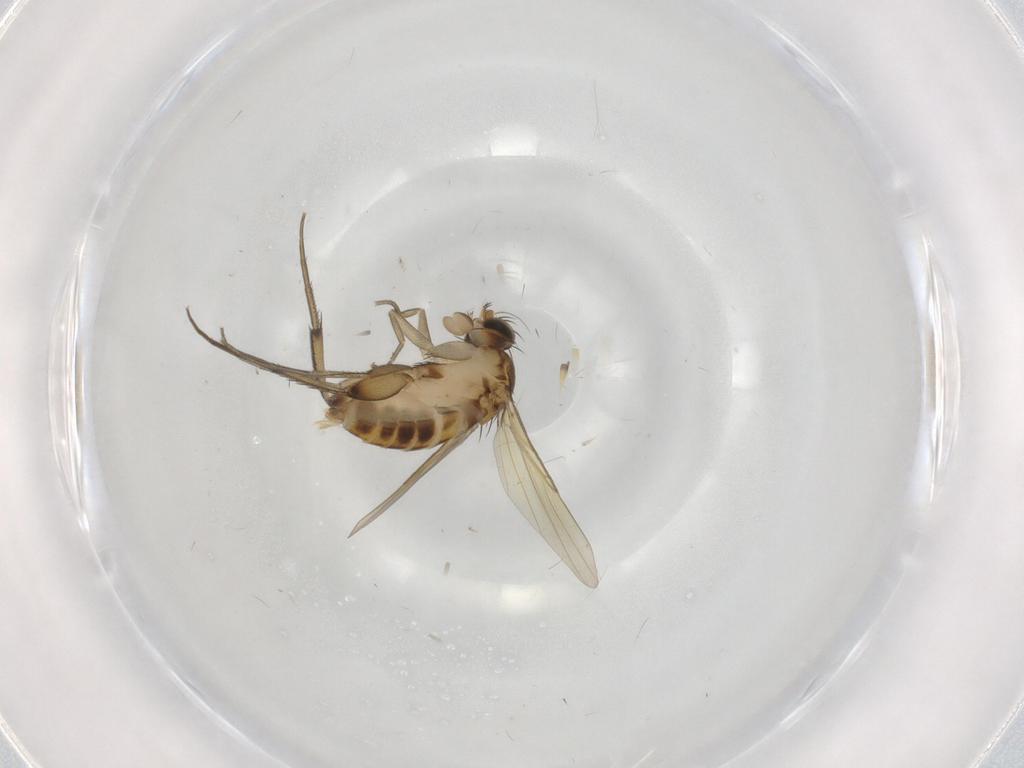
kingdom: Animalia
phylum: Arthropoda
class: Insecta
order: Diptera
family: Phoridae
